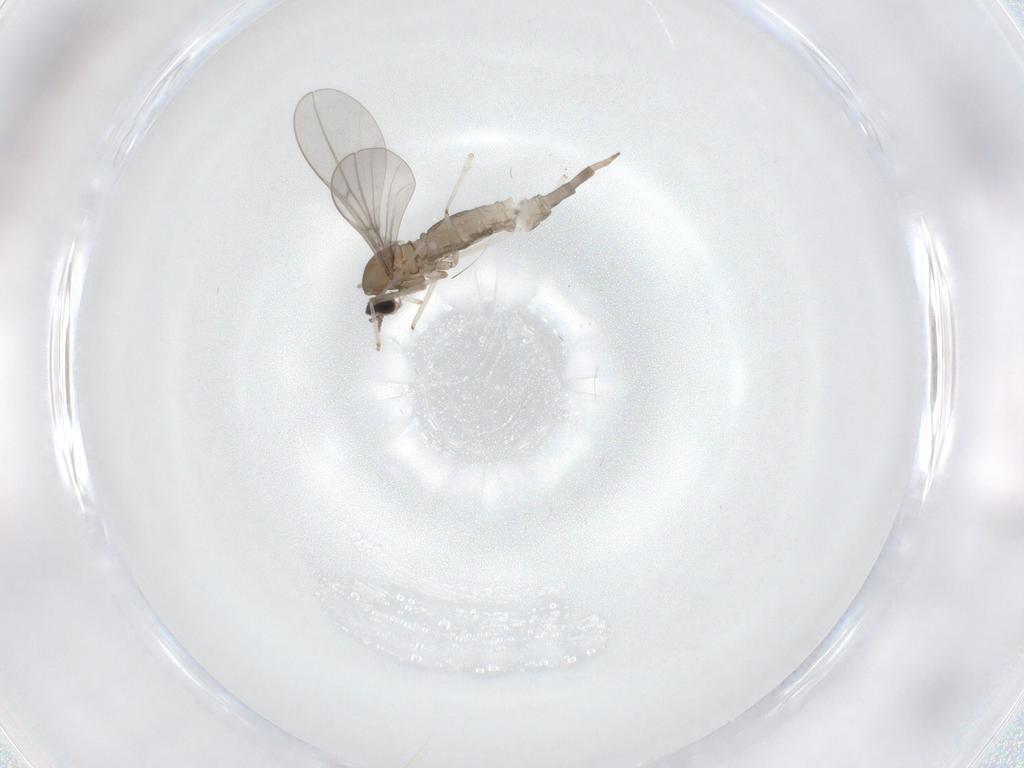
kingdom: Animalia
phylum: Arthropoda
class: Insecta
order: Diptera
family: Cecidomyiidae
